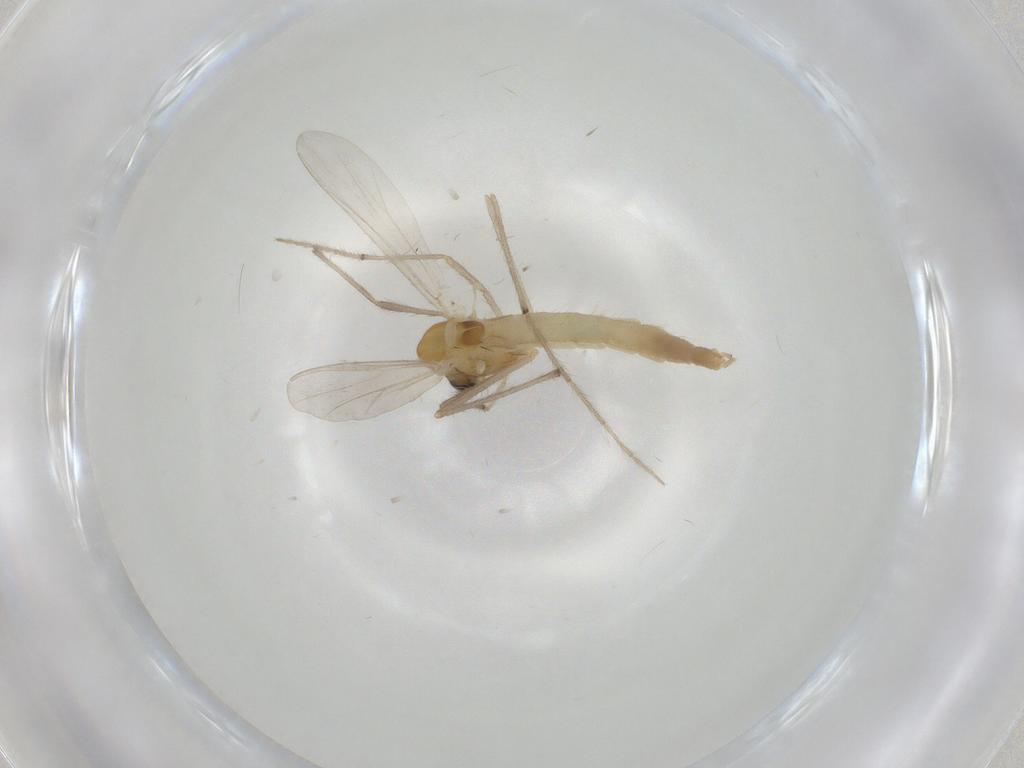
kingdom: Animalia
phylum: Arthropoda
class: Insecta
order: Diptera
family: Chironomidae
